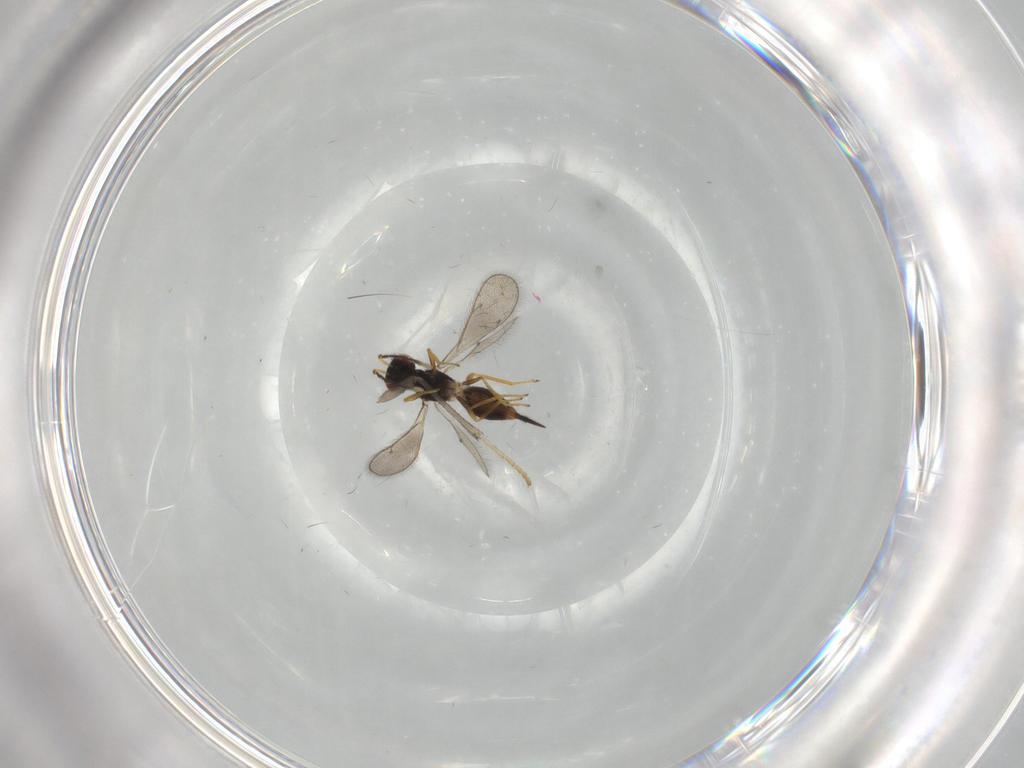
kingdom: Animalia
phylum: Arthropoda
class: Insecta
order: Hymenoptera
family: Eulophidae
